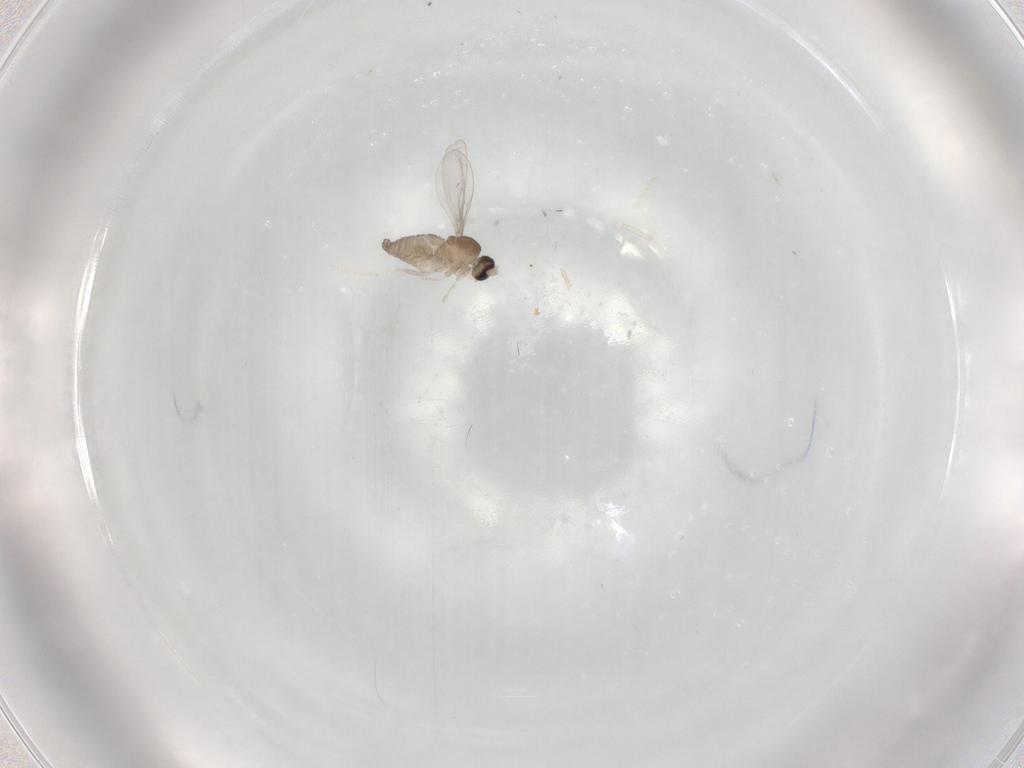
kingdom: Animalia
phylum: Arthropoda
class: Insecta
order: Diptera
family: Cecidomyiidae
